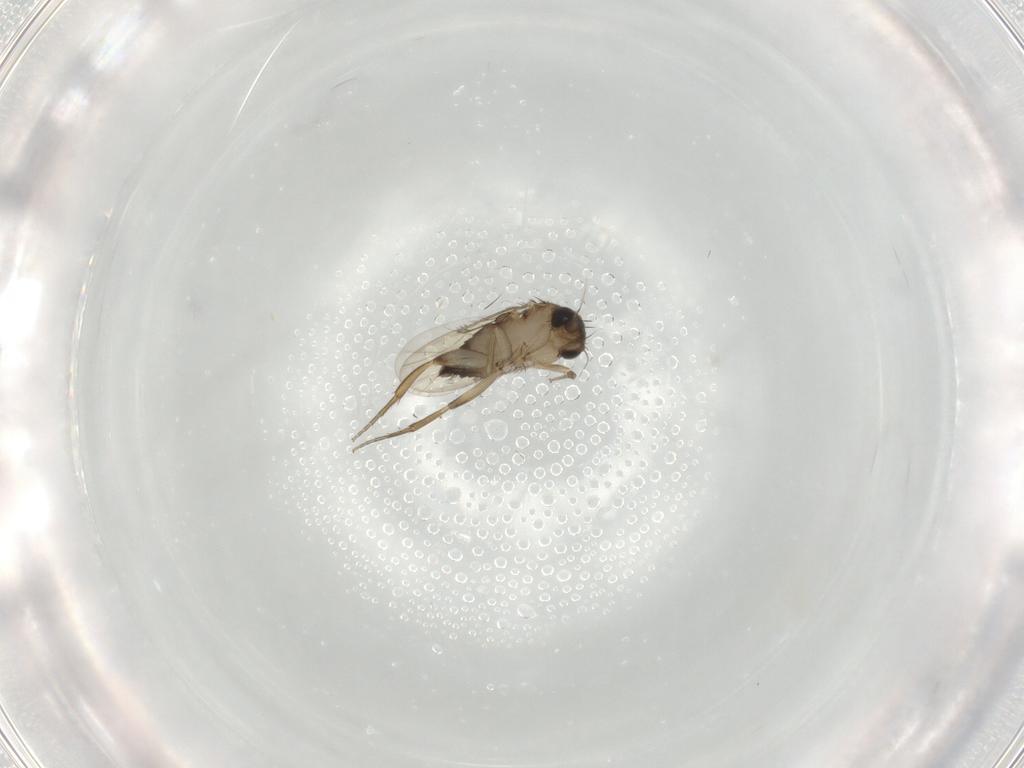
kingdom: Animalia
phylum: Arthropoda
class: Insecta
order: Diptera
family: Phoridae
